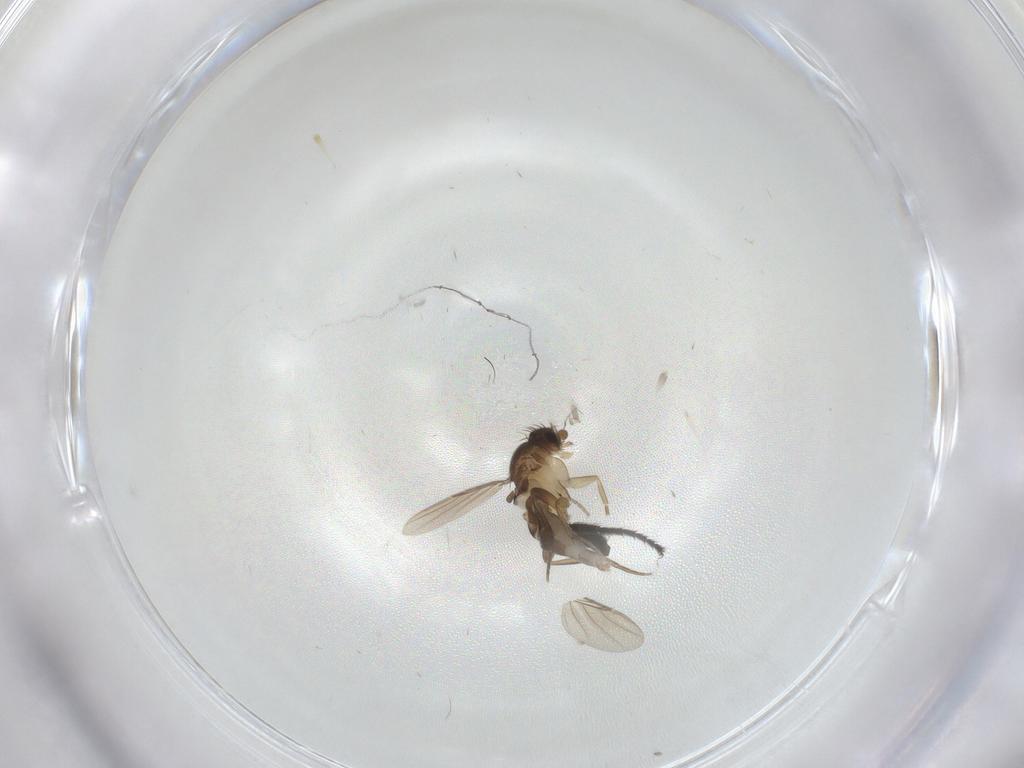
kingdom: Animalia
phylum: Arthropoda
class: Insecta
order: Diptera
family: Phoridae
